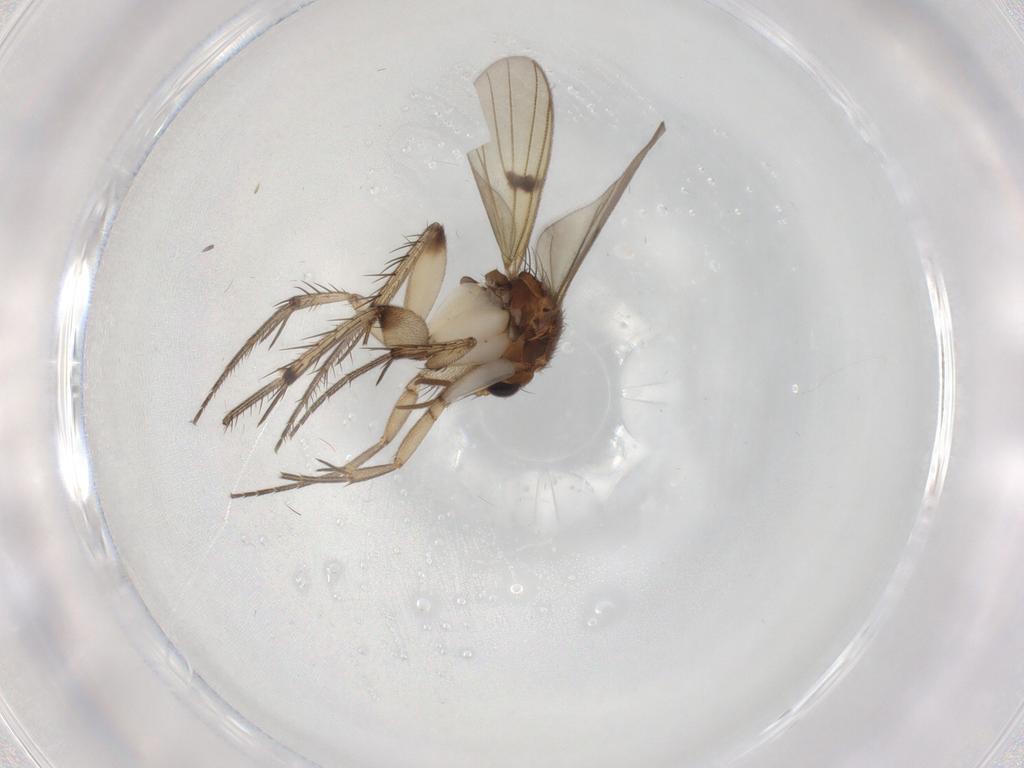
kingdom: Animalia
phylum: Arthropoda
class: Insecta
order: Diptera
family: Mycetophilidae
